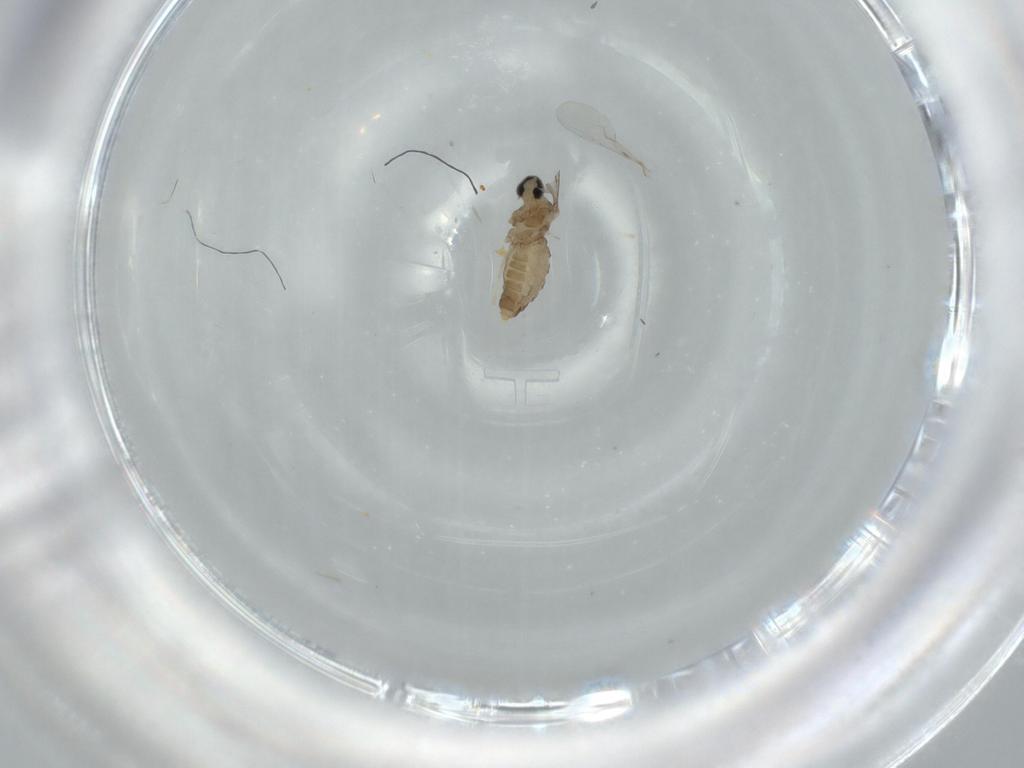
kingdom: Animalia
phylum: Arthropoda
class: Insecta
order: Diptera
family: Cecidomyiidae
